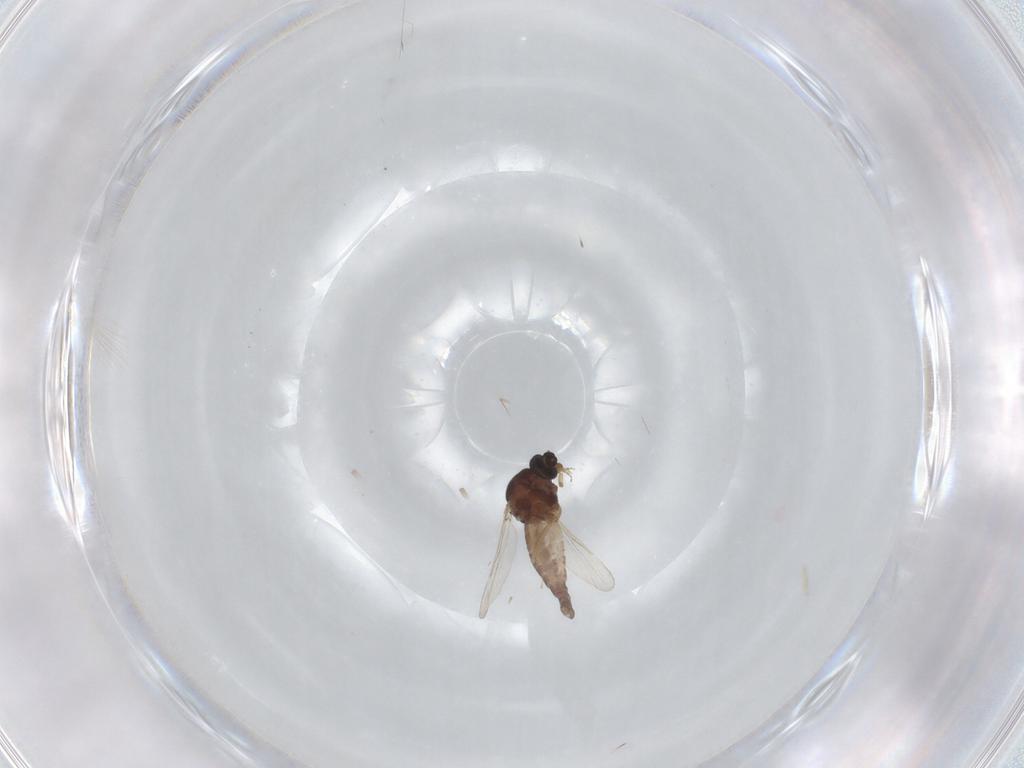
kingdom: Animalia
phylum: Arthropoda
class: Insecta
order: Diptera
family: Ceratopogonidae
